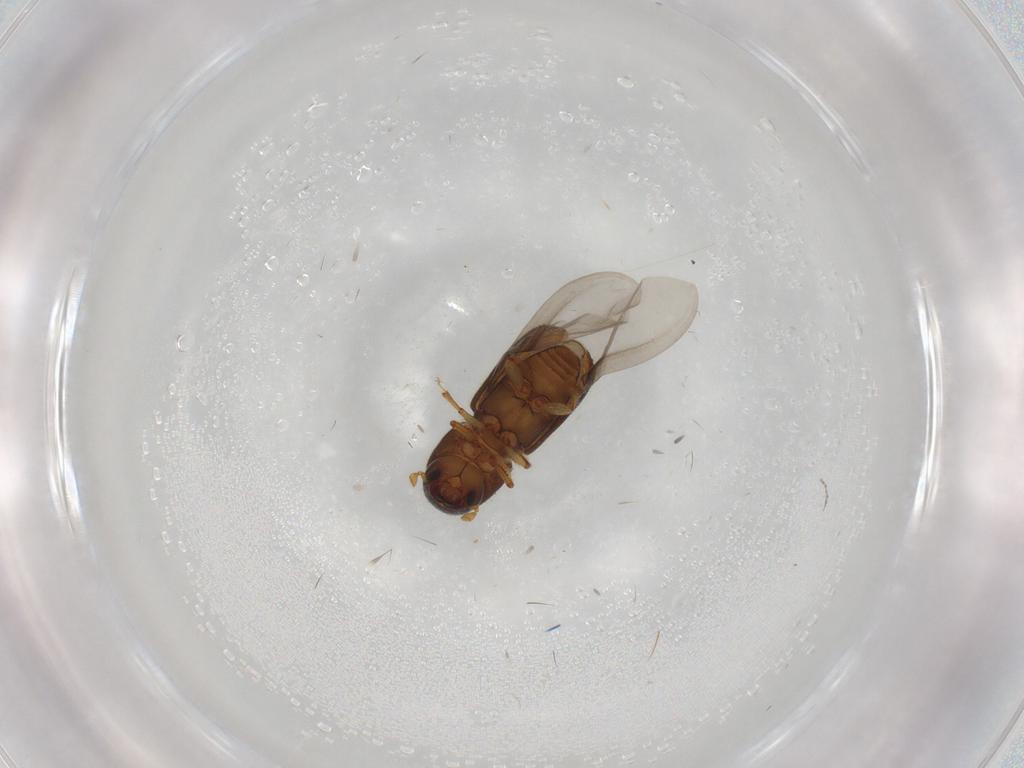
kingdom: Animalia
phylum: Arthropoda
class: Insecta
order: Coleoptera
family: Curculionidae
